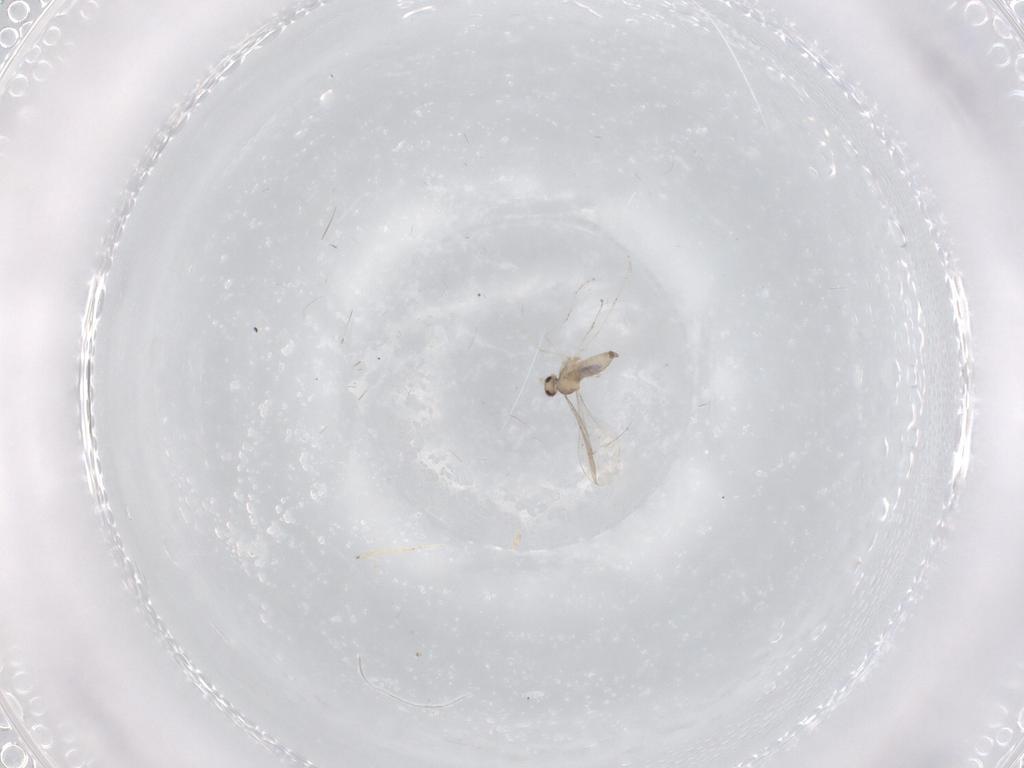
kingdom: Animalia
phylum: Arthropoda
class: Insecta
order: Diptera
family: Cecidomyiidae
